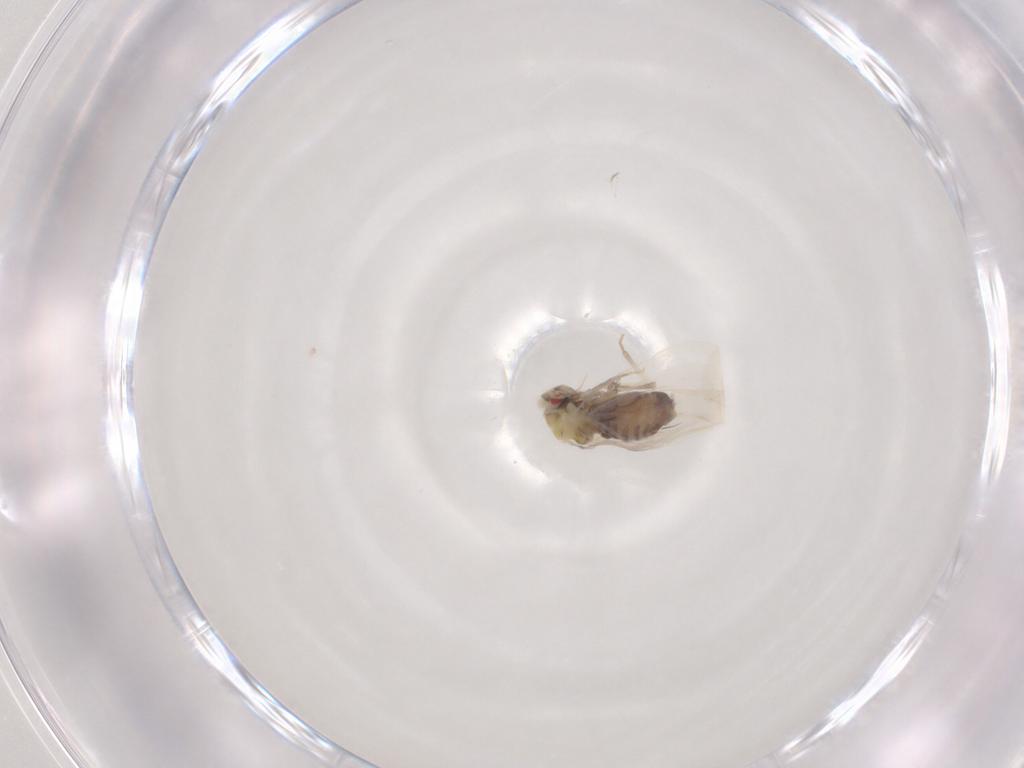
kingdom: Animalia
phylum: Arthropoda
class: Insecta
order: Hemiptera
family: Aleyrodidae
